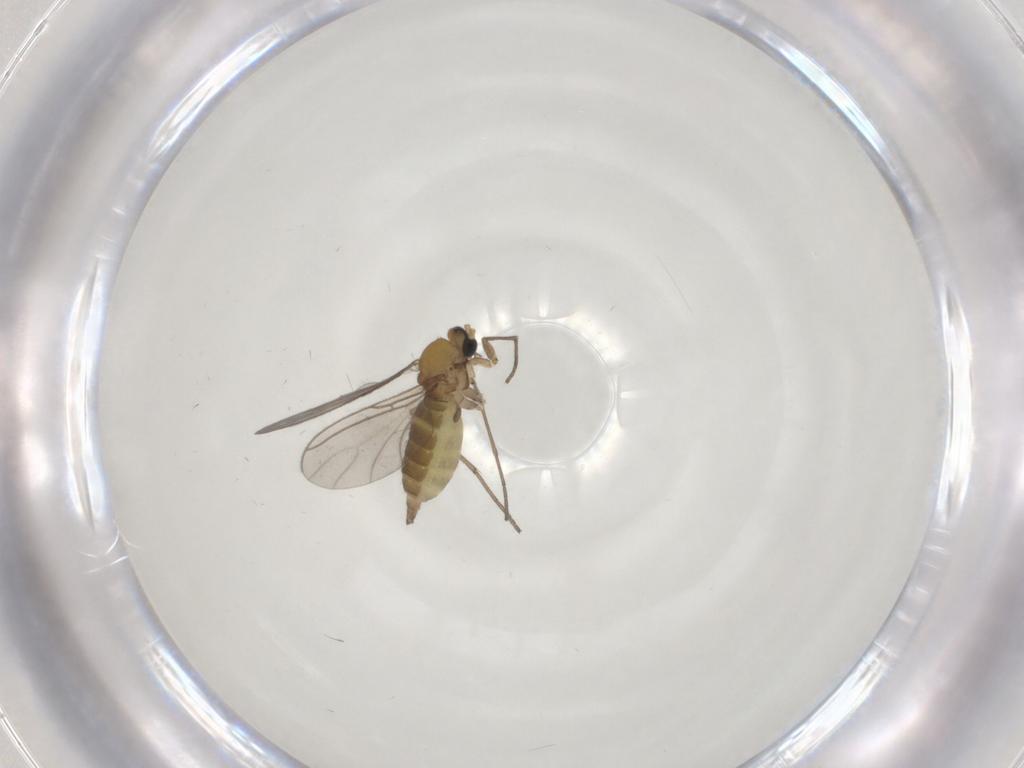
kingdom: Animalia
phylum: Arthropoda
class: Insecta
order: Diptera
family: Sciaridae
